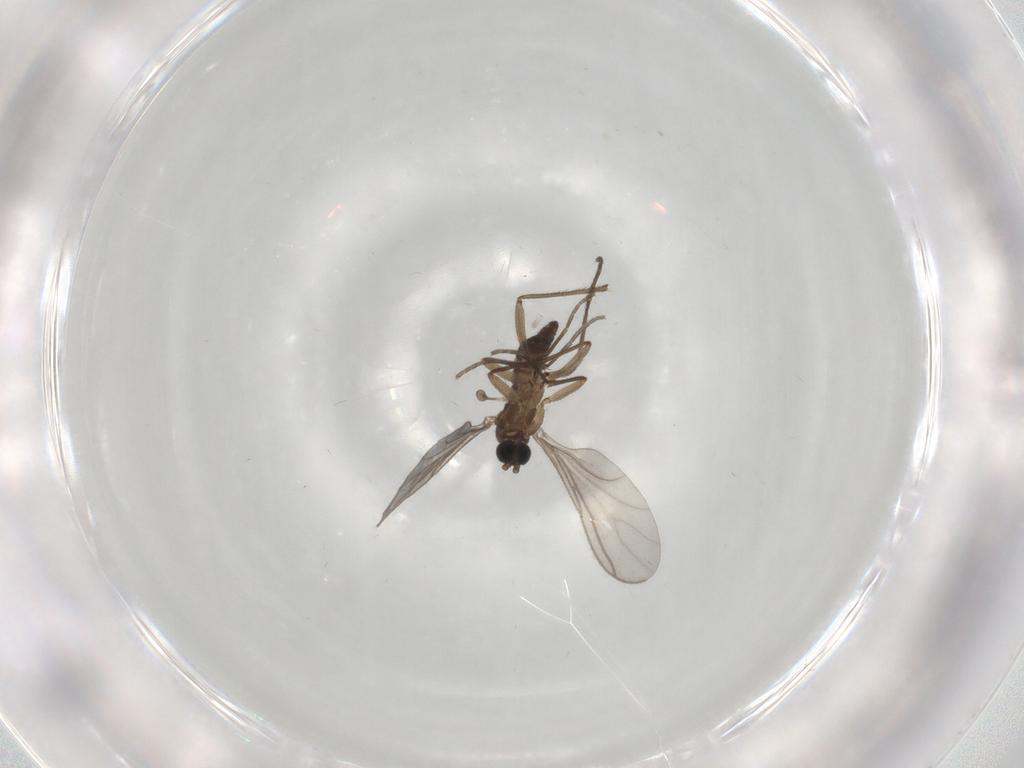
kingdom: Animalia
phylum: Arthropoda
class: Insecta
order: Diptera
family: Sciaridae
